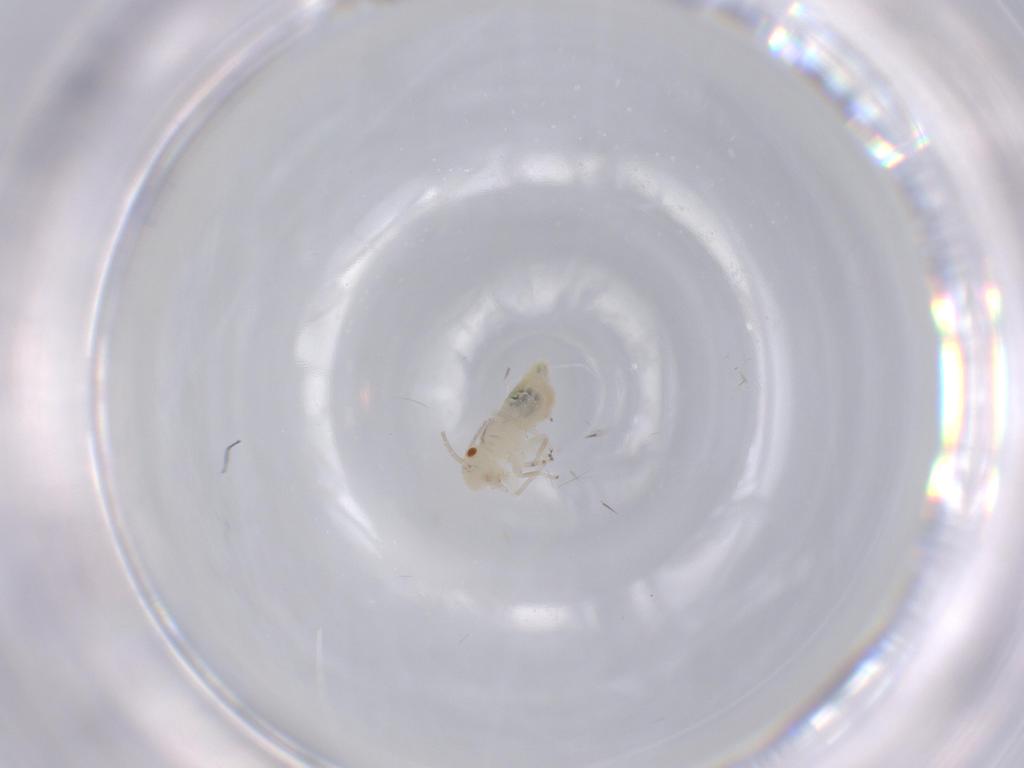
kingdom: Animalia
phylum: Arthropoda
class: Insecta
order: Psocodea
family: Caeciliusidae
